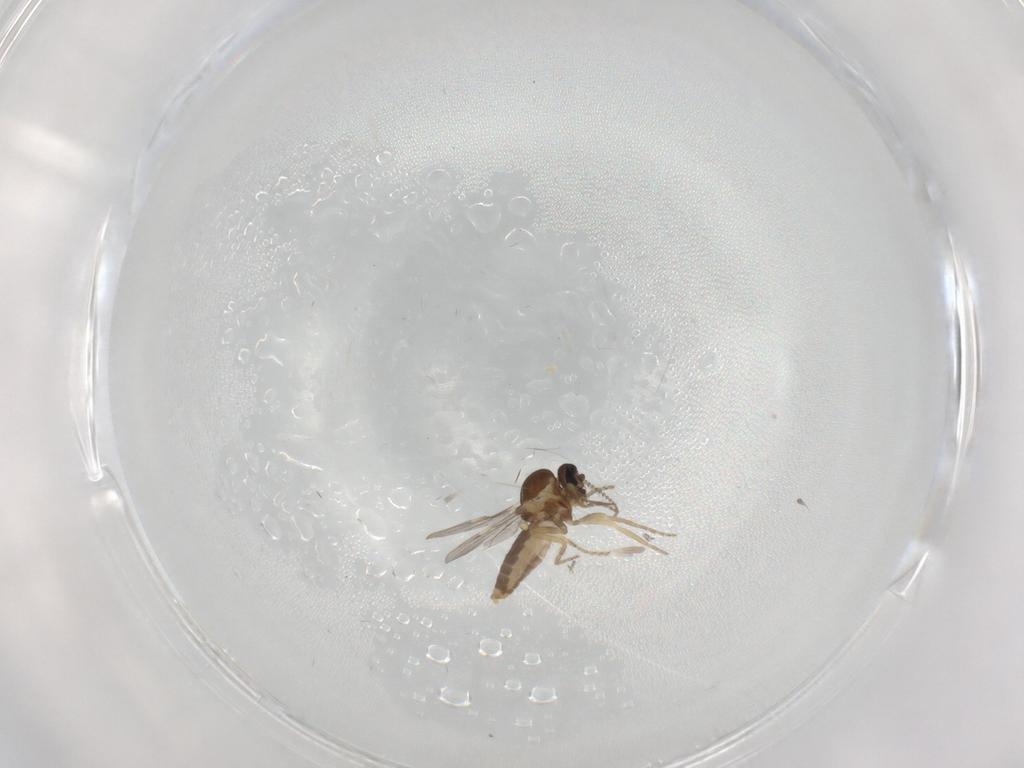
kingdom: Animalia
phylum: Arthropoda
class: Insecta
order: Diptera
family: Ceratopogonidae
